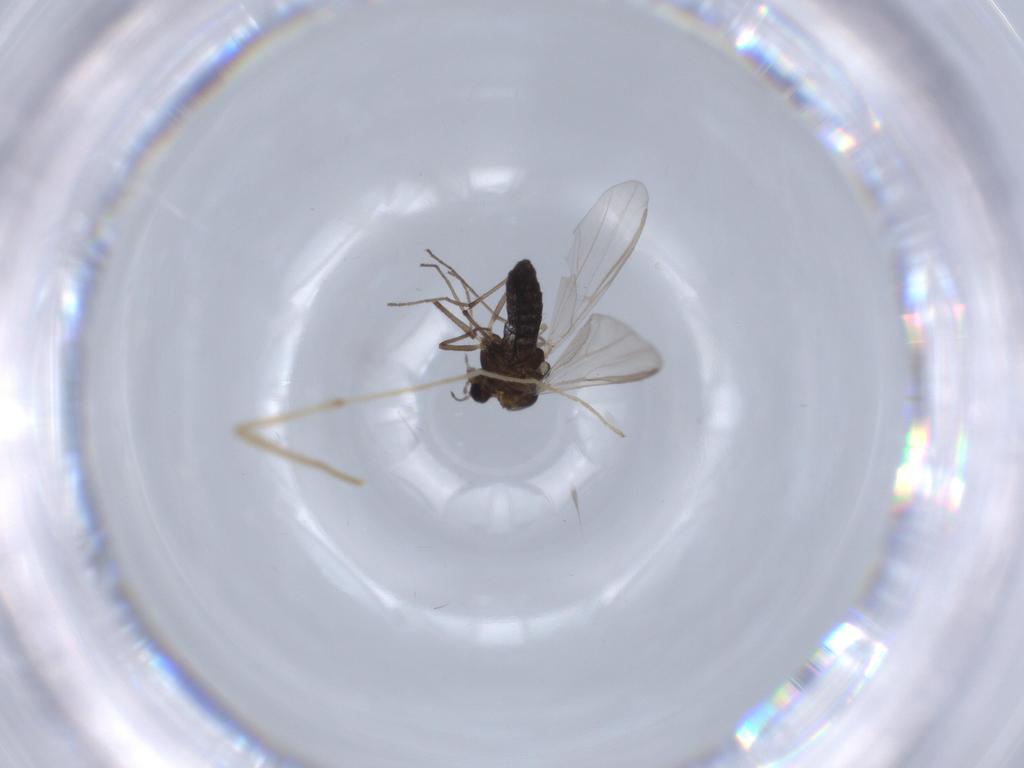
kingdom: Animalia
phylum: Arthropoda
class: Insecta
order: Diptera
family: Chironomidae
